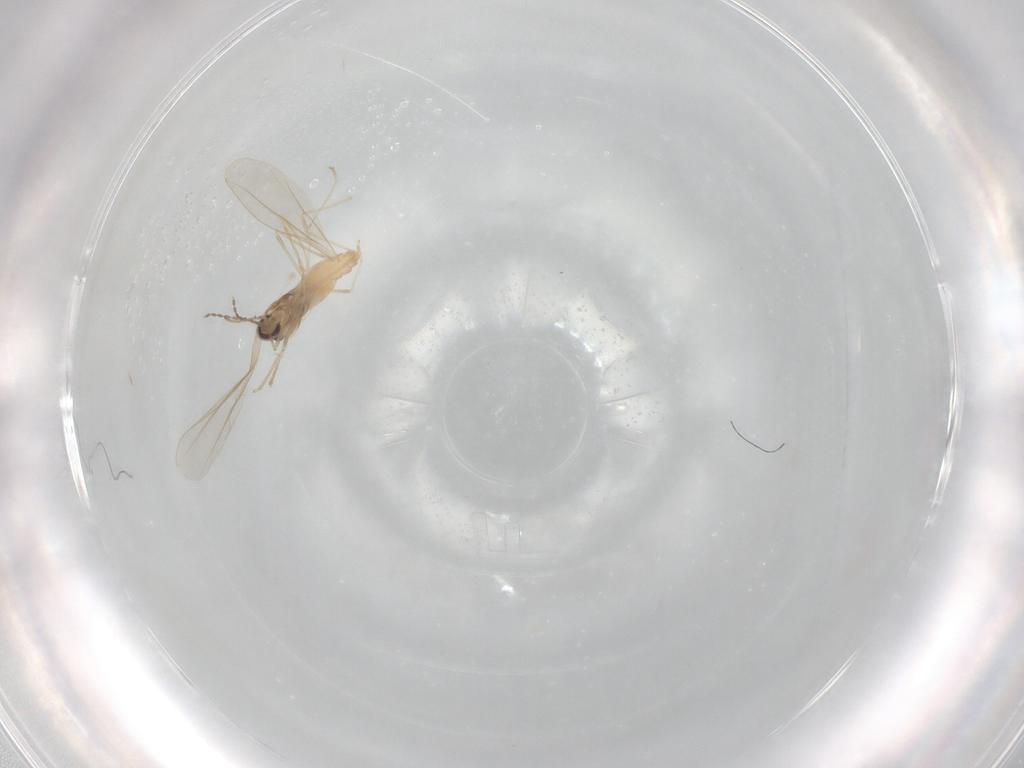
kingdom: Animalia
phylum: Arthropoda
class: Insecta
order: Diptera
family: Cecidomyiidae
